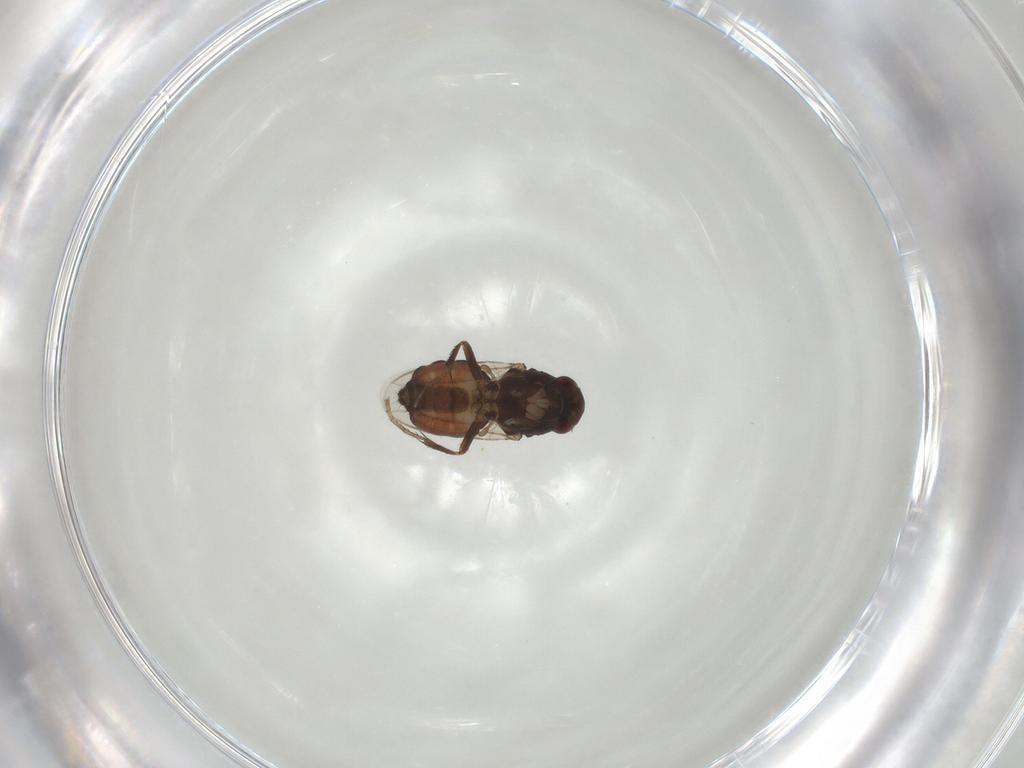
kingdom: Animalia
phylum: Arthropoda
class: Insecta
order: Diptera
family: Sphaeroceridae
